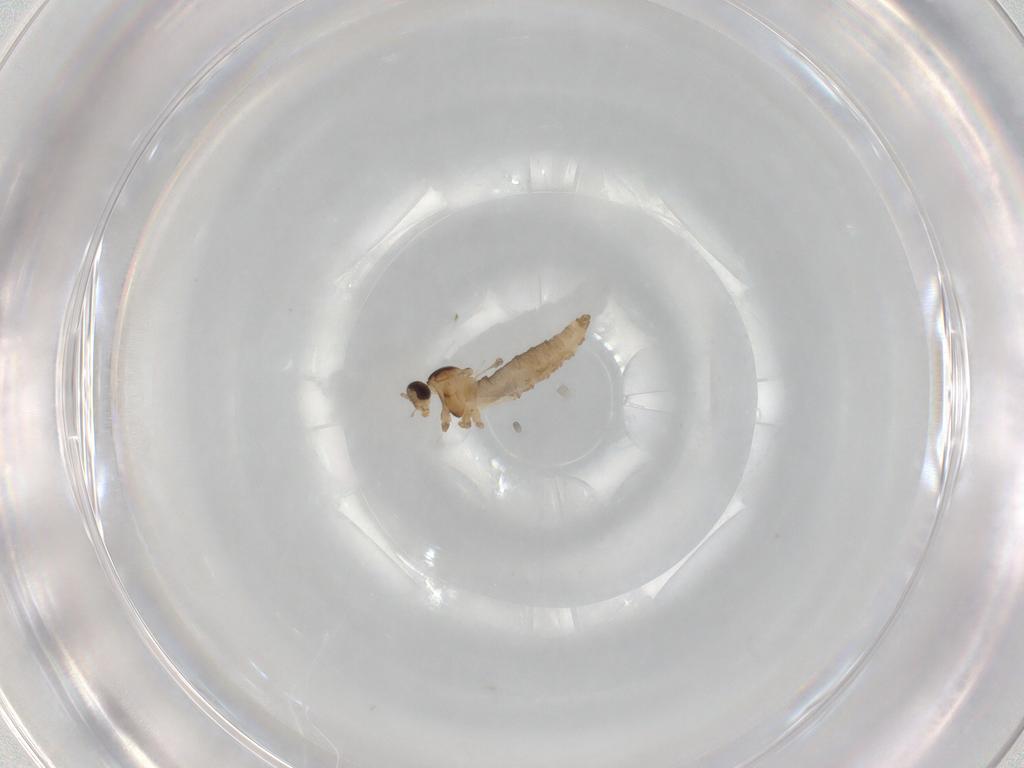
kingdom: Animalia
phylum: Arthropoda
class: Insecta
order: Diptera
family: Cecidomyiidae
